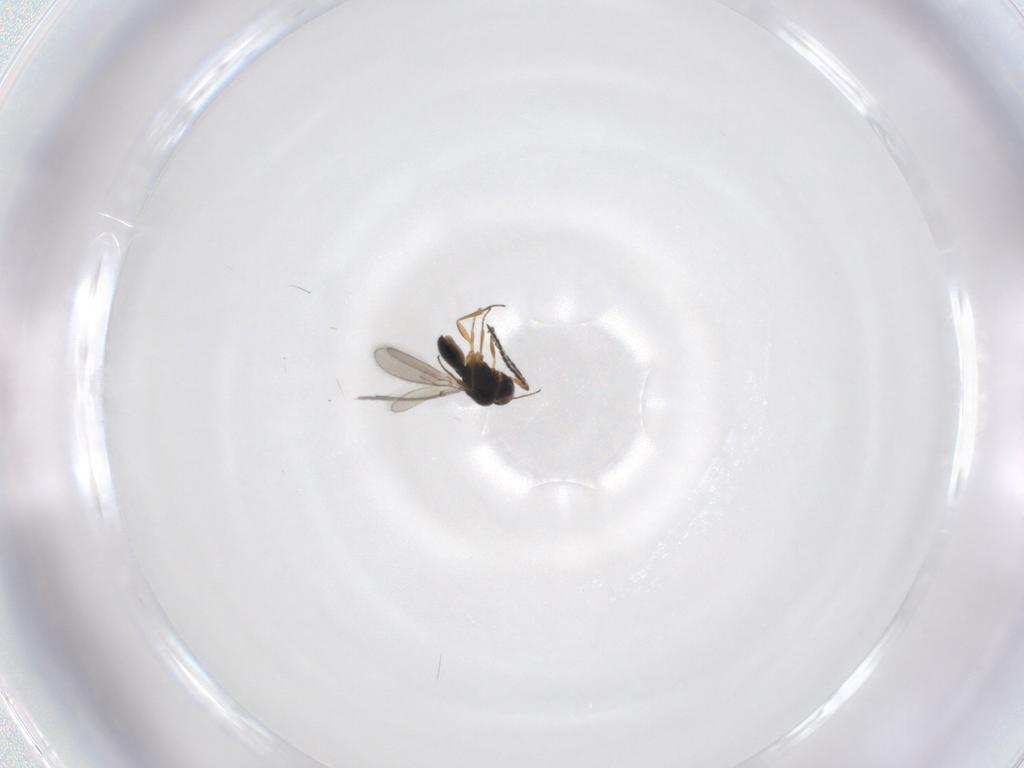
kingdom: Animalia
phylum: Arthropoda
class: Insecta
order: Hymenoptera
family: Scelionidae
